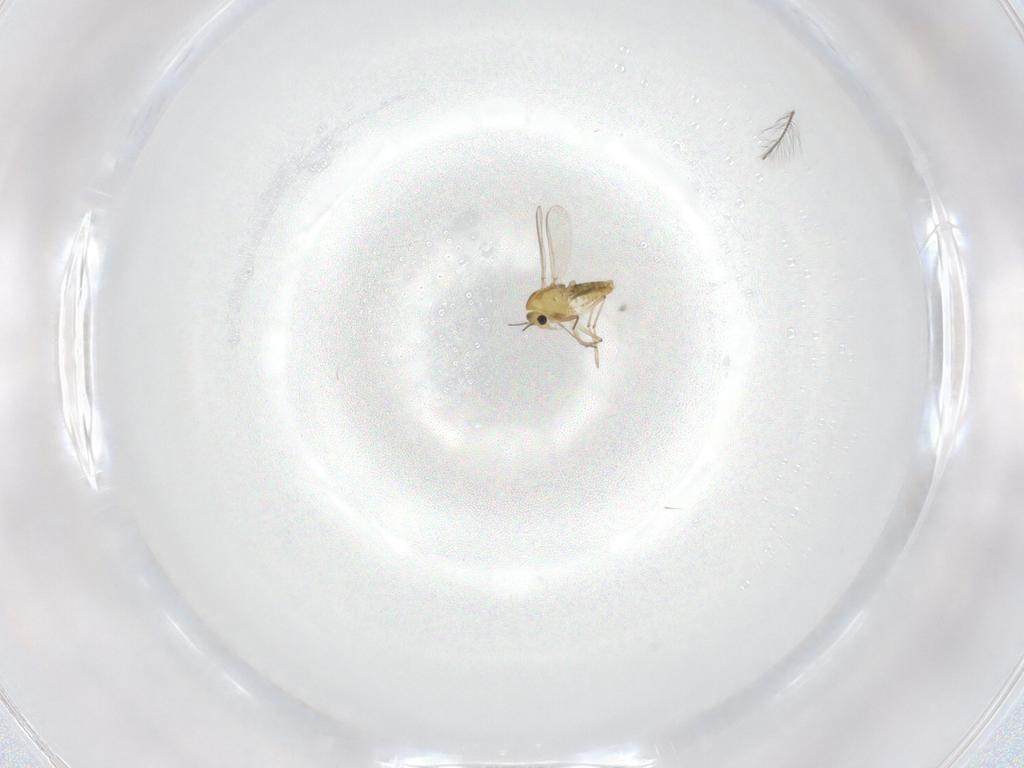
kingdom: Animalia
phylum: Arthropoda
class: Insecta
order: Diptera
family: Chironomidae
